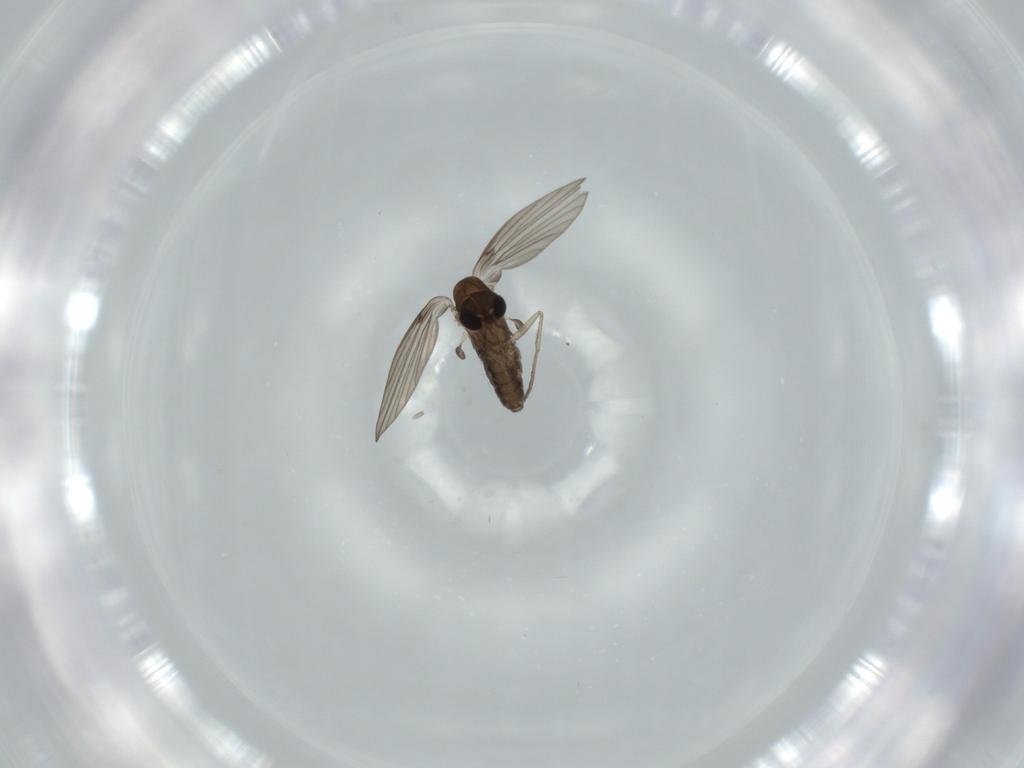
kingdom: Animalia
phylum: Arthropoda
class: Insecta
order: Diptera
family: Psychodidae
